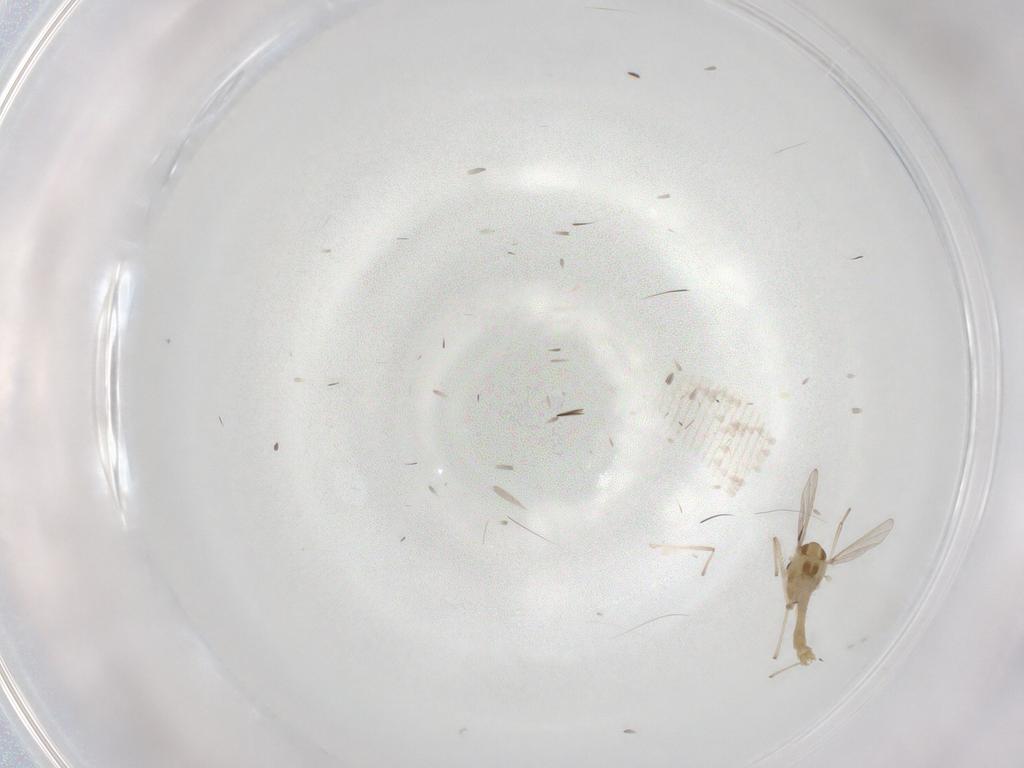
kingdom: Animalia
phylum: Arthropoda
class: Insecta
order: Diptera
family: Chironomidae
